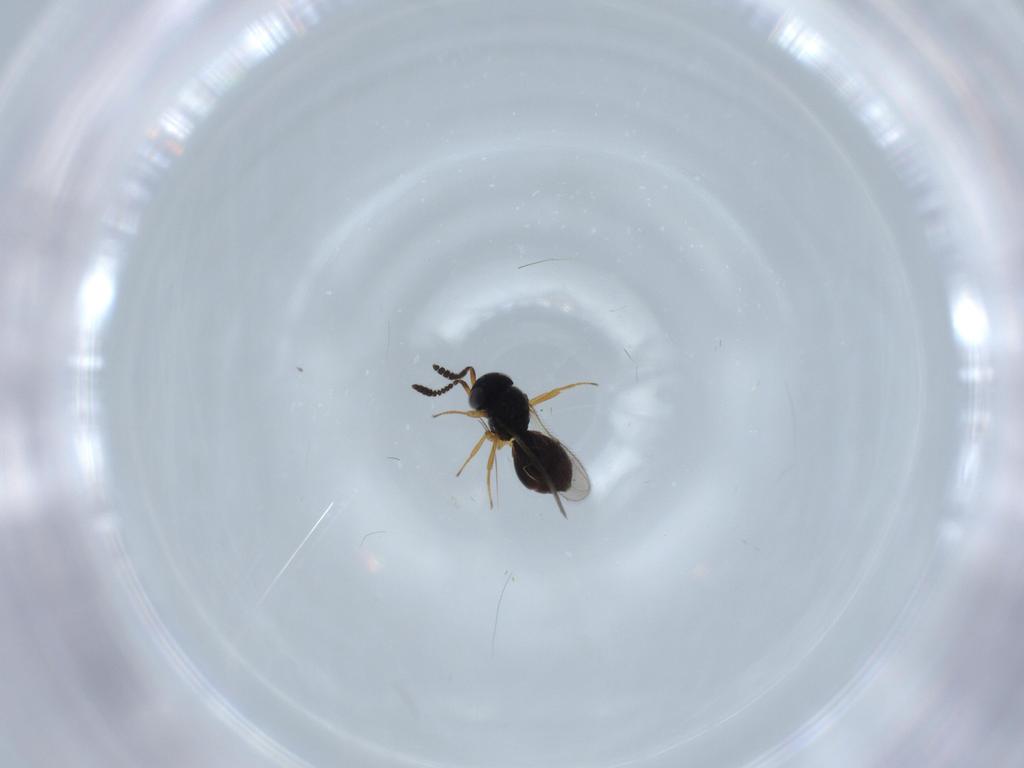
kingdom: Animalia
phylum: Arthropoda
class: Insecta
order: Hymenoptera
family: Scelionidae
